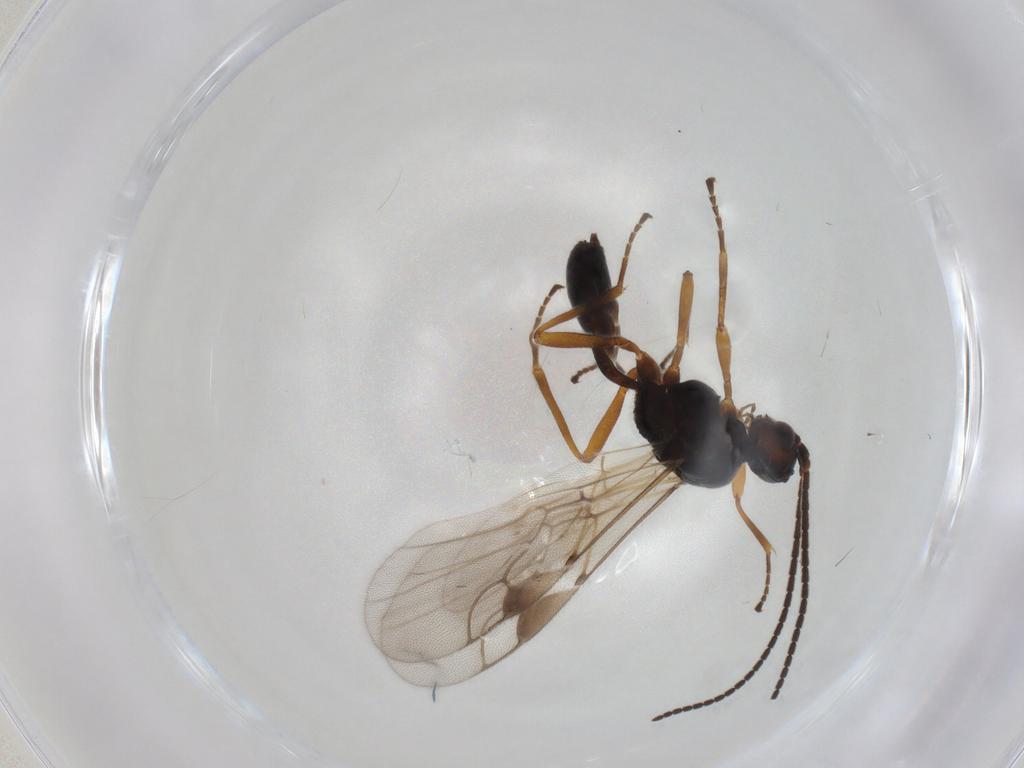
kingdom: Animalia
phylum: Arthropoda
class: Insecta
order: Hymenoptera
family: Braconidae
